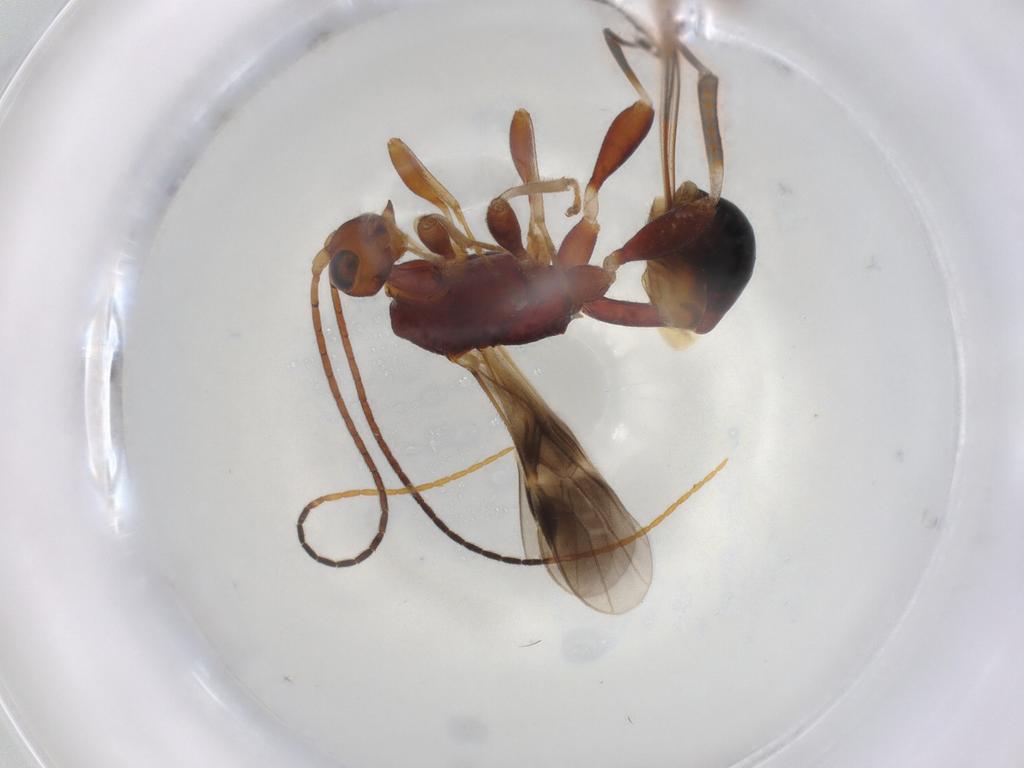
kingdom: Animalia
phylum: Arthropoda
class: Insecta
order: Hymenoptera
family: Braconidae
